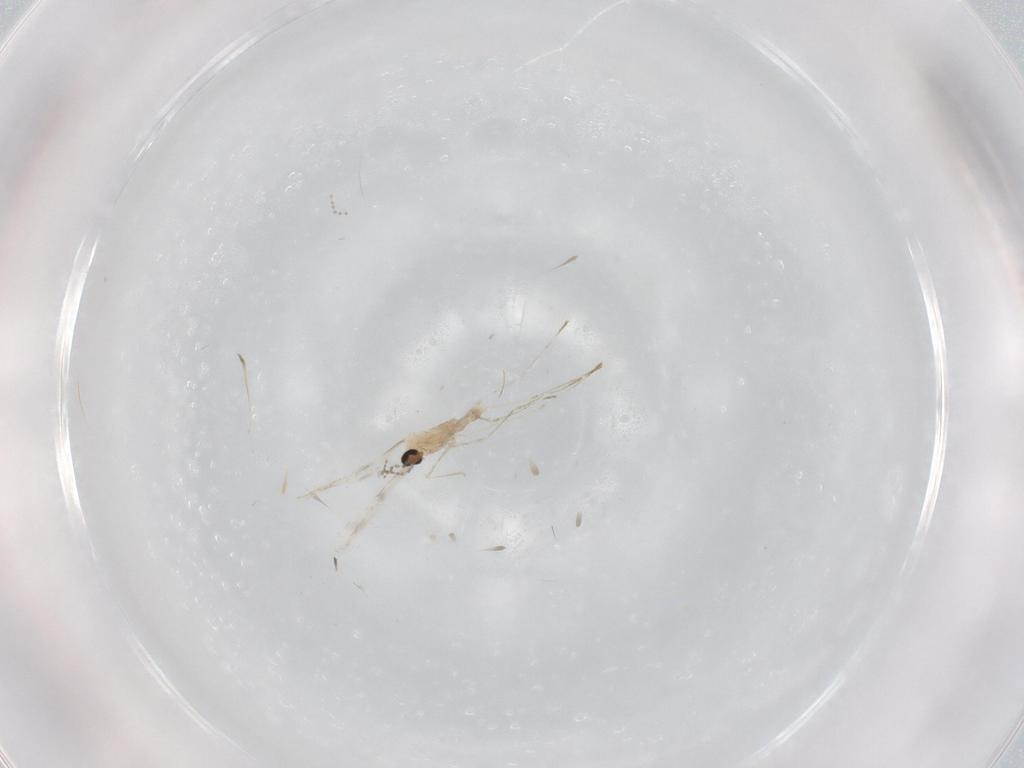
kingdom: Animalia
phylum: Arthropoda
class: Insecta
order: Diptera
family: Cecidomyiidae
